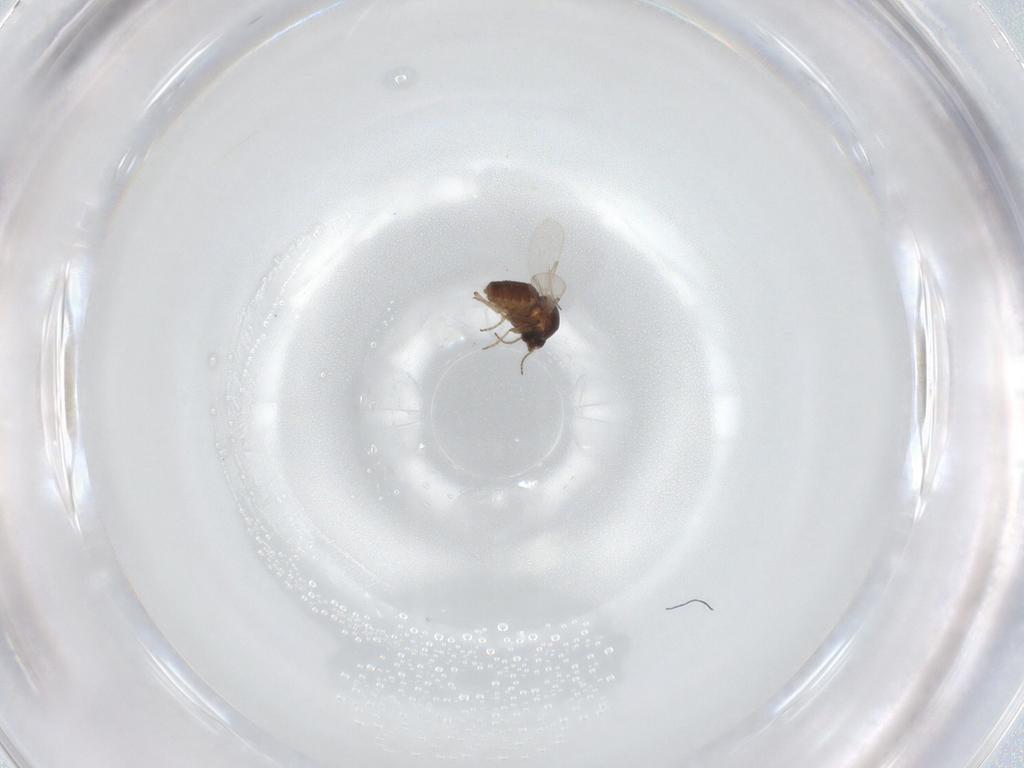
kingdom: Animalia
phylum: Arthropoda
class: Insecta
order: Diptera
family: Ceratopogonidae
